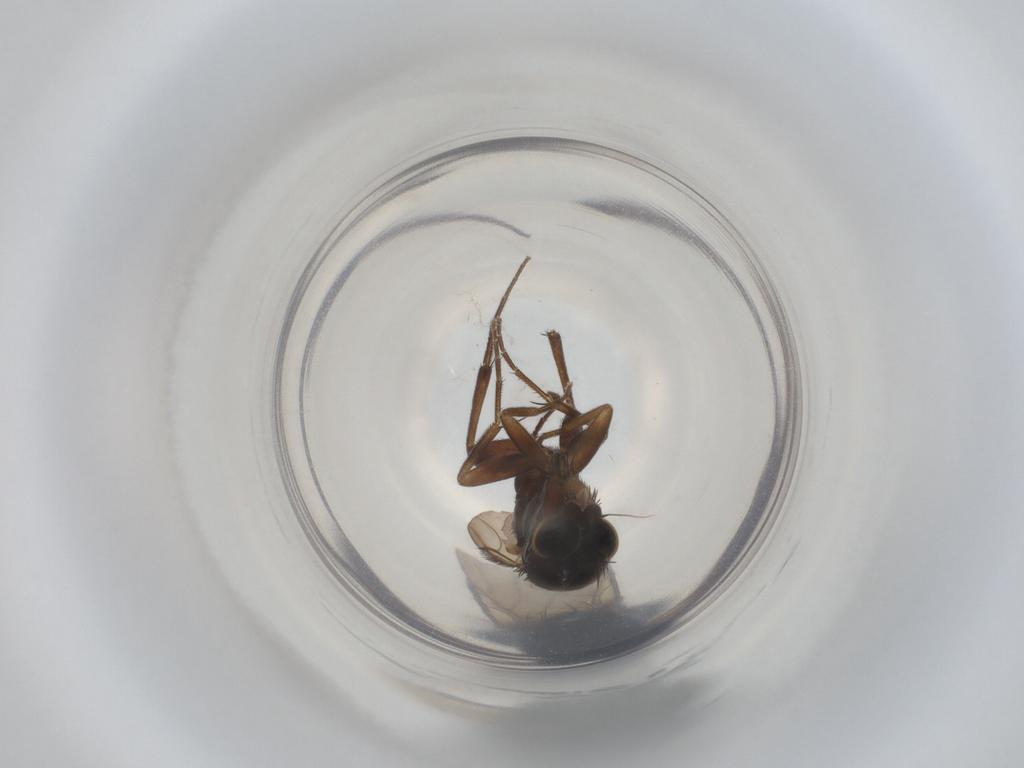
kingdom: Animalia
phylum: Arthropoda
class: Insecta
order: Diptera
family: Phoridae
